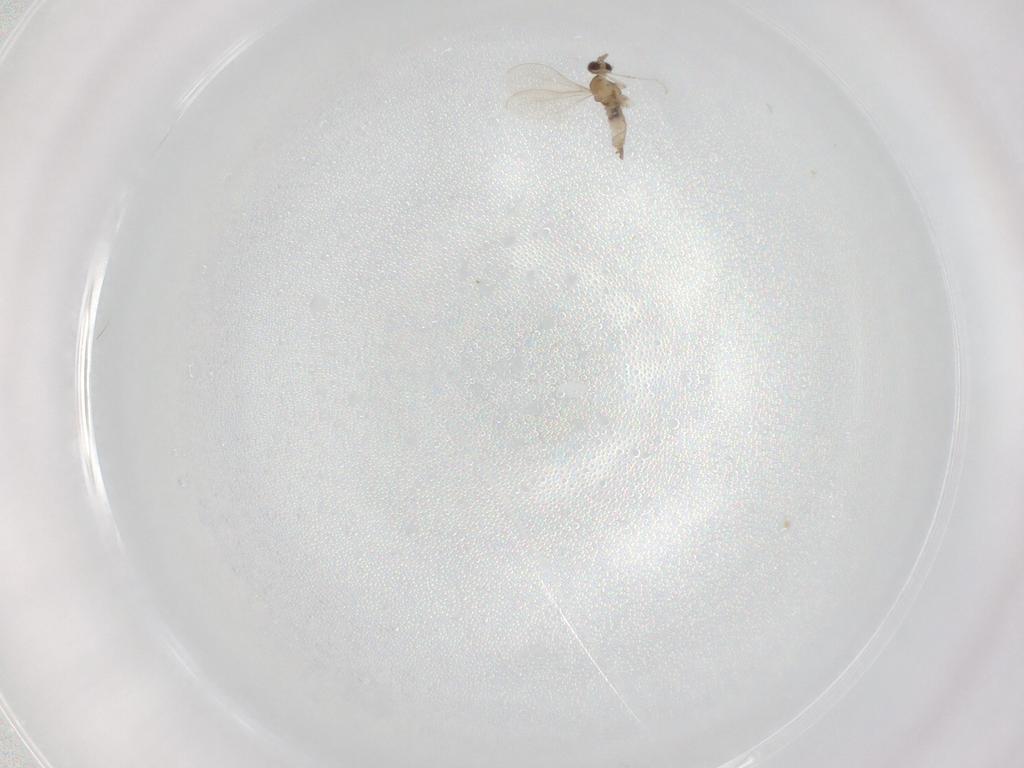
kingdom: Animalia
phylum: Arthropoda
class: Insecta
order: Diptera
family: Cecidomyiidae
